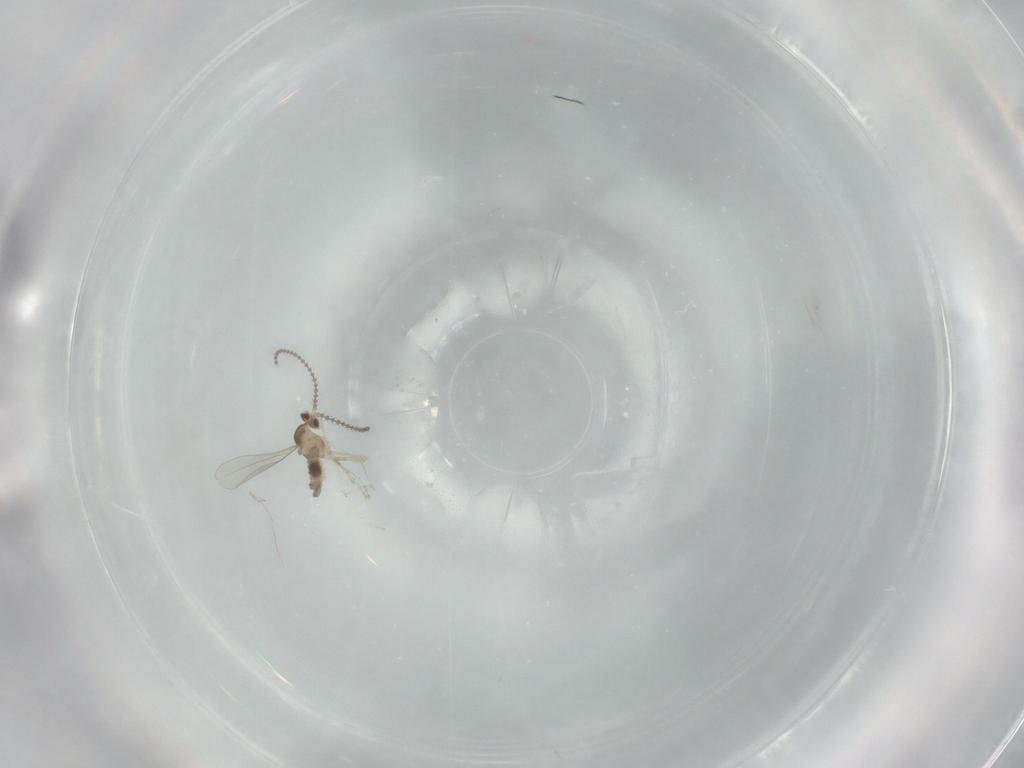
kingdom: Animalia
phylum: Arthropoda
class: Insecta
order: Diptera
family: Cecidomyiidae
